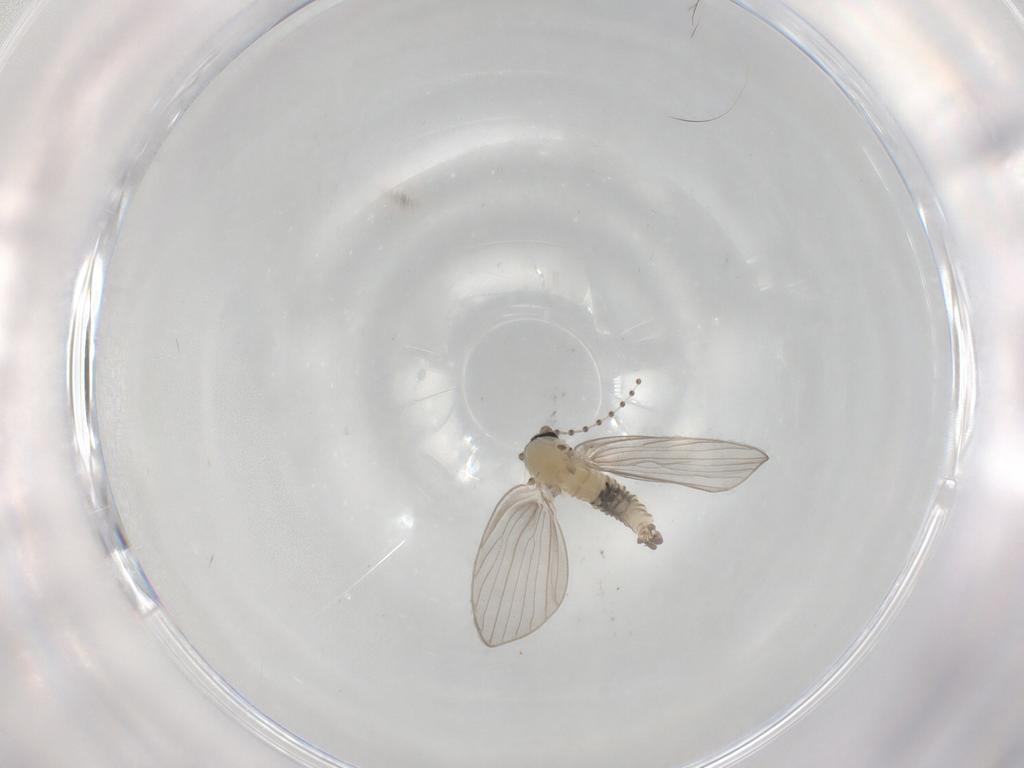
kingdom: Animalia
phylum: Arthropoda
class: Insecta
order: Diptera
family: Psychodidae
